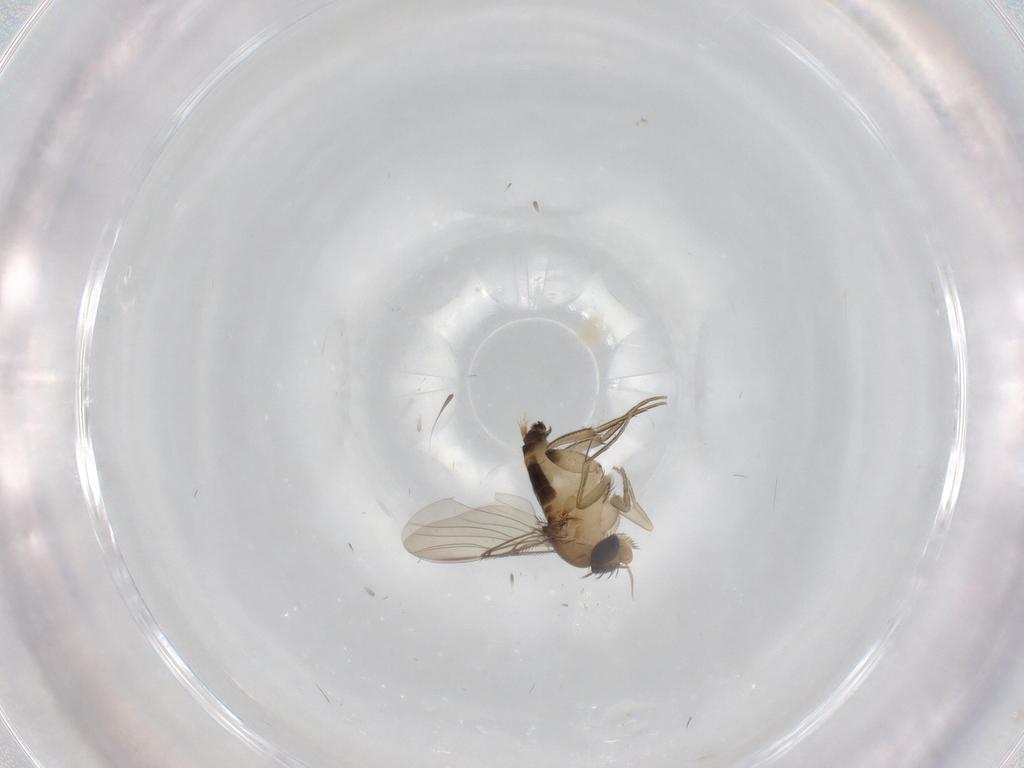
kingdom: Animalia
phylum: Arthropoda
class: Insecta
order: Diptera
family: Phoridae
